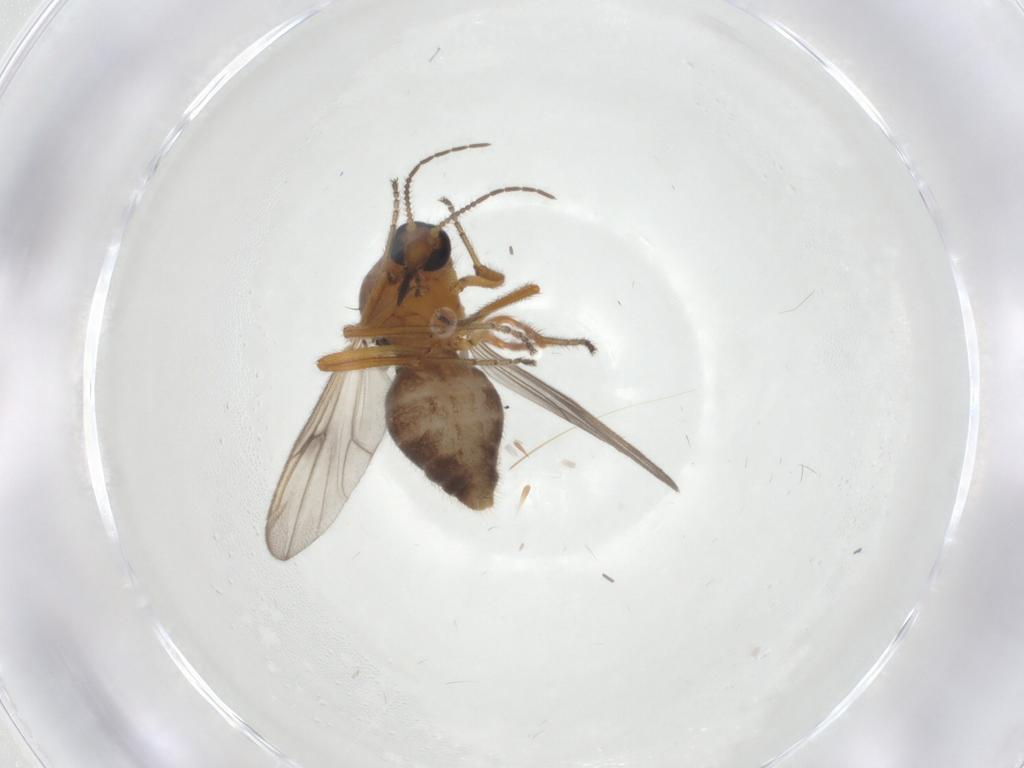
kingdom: Animalia
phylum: Arthropoda
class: Insecta
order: Diptera
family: Ceratopogonidae
